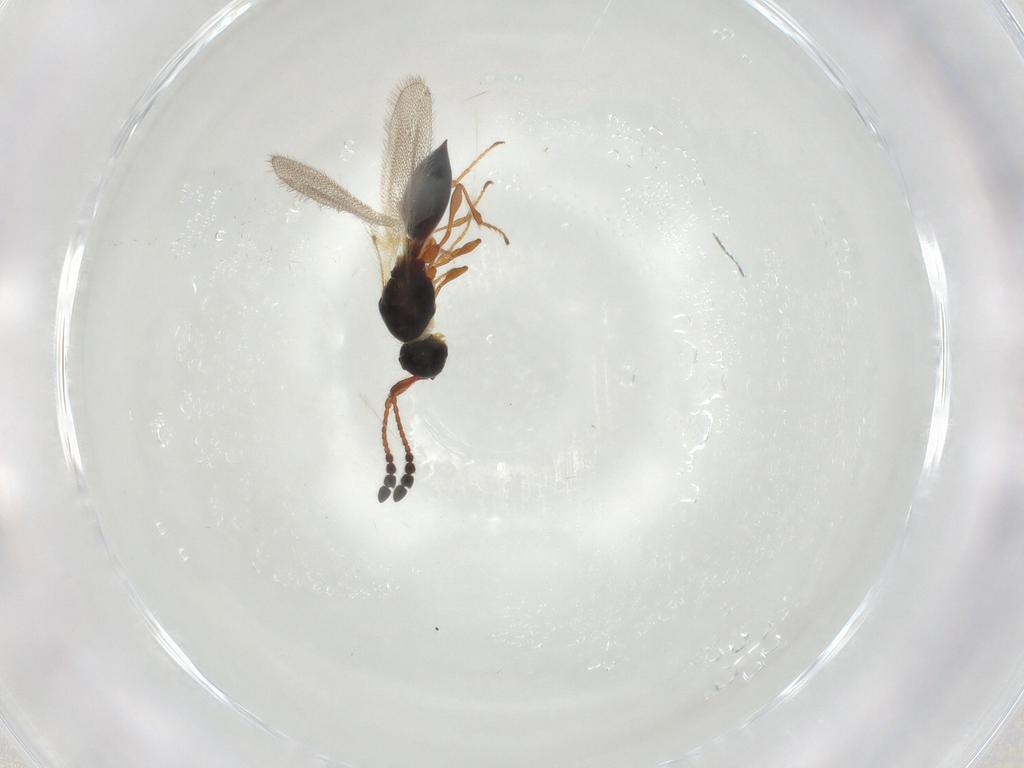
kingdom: Animalia
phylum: Arthropoda
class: Insecta
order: Hymenoptera
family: Diapriidae
